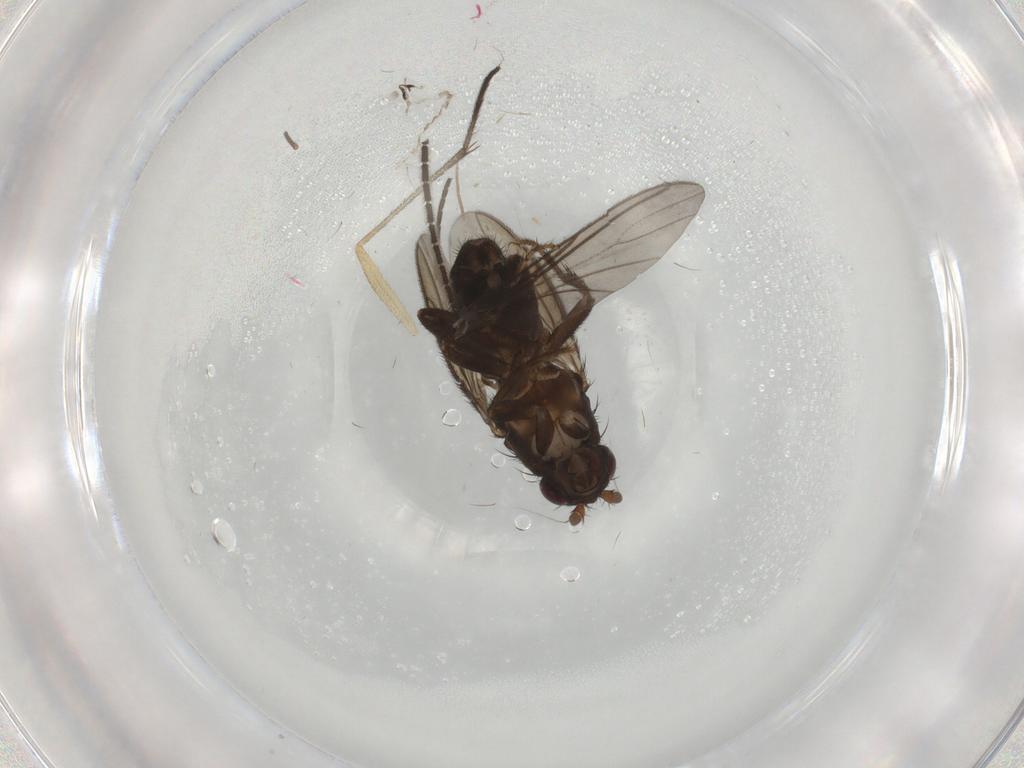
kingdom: Animalia
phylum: Arthropoda
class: Insecta
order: Diptera
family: Sciaridae
